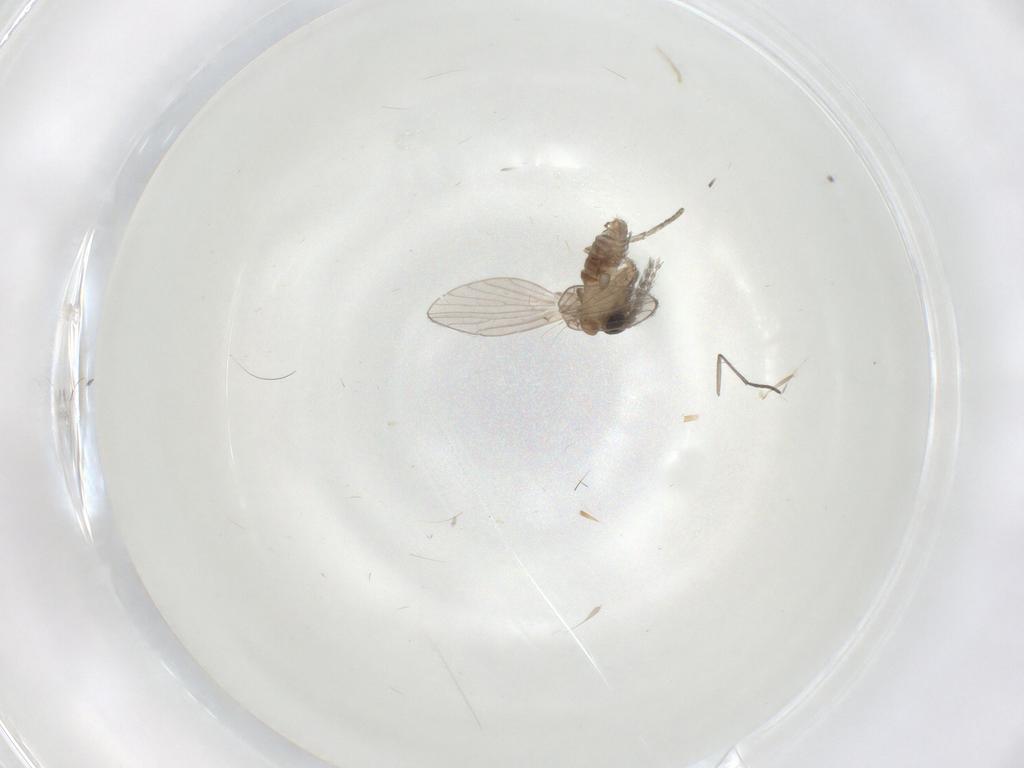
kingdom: Animalia
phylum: Arthropoda
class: Insecta
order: Diptera
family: Psychodidae
